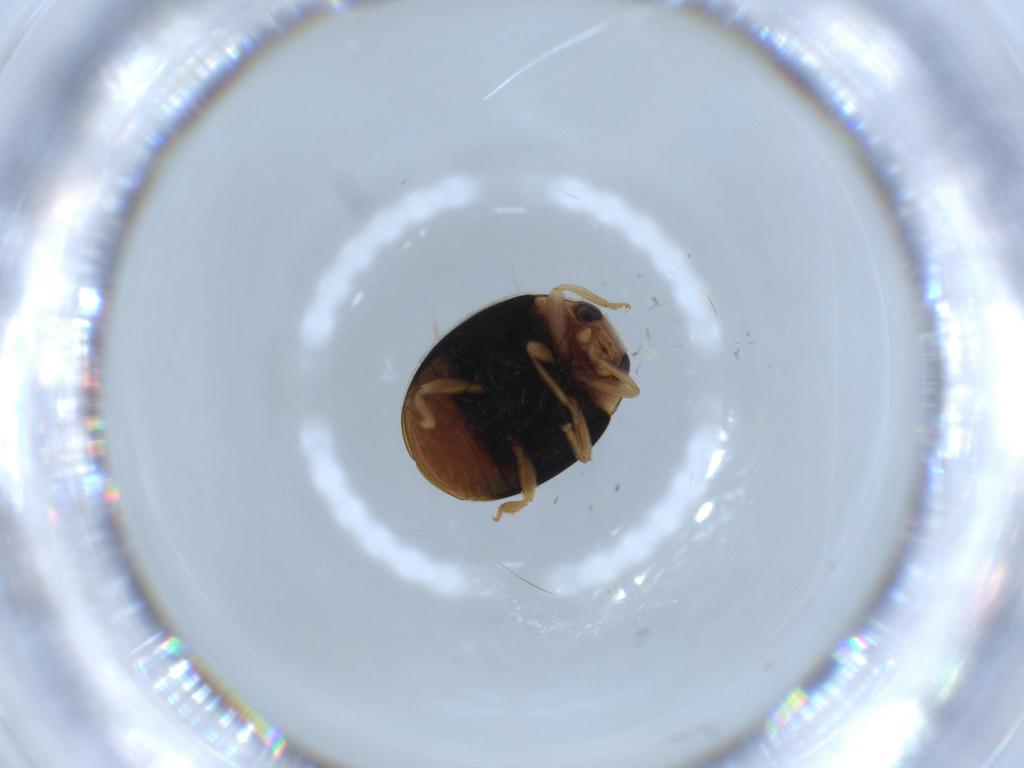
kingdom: Animalia
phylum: Arthropoda
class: Insecta
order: Coleoptera
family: Coccinellidae
